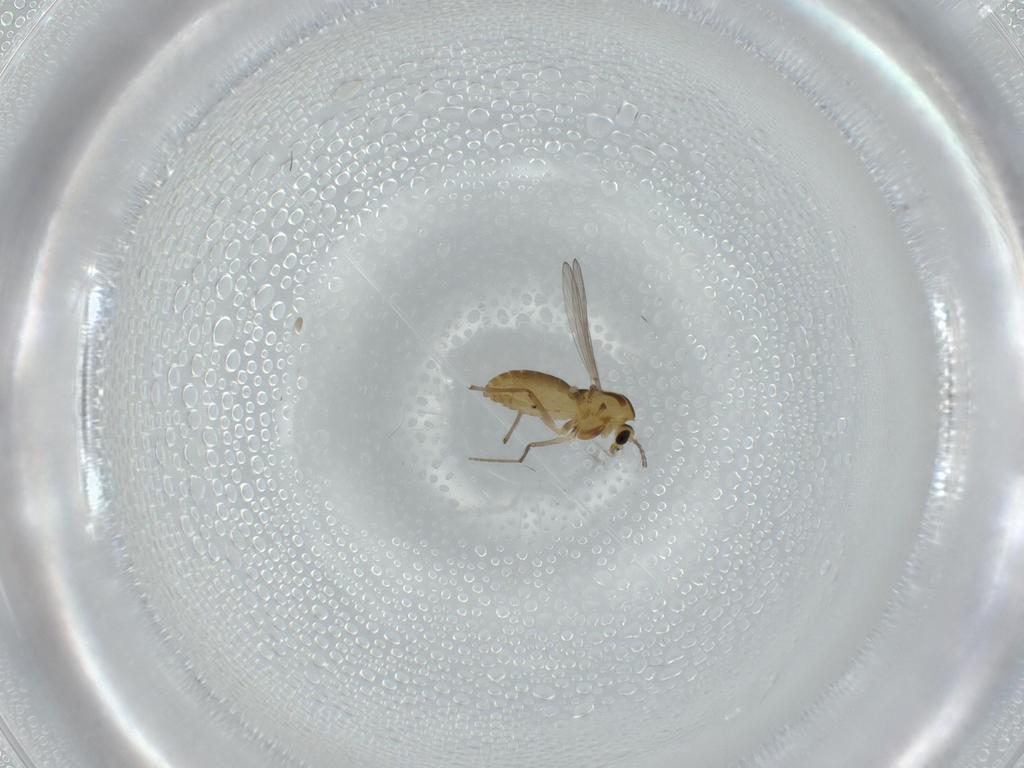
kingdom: Animalia
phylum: Arthropoda
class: Insecta
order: Diptera
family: Chironomidae
